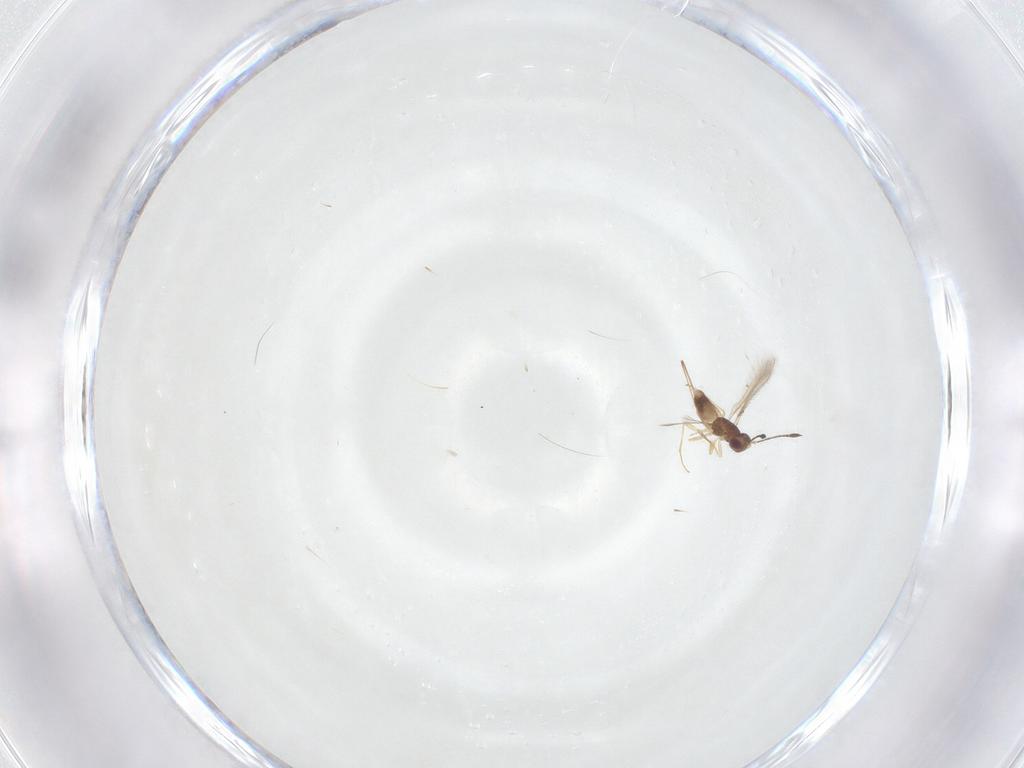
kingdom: Animalia
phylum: Arthropoda
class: Insecta
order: Hymenoptera
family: Mymaridae
